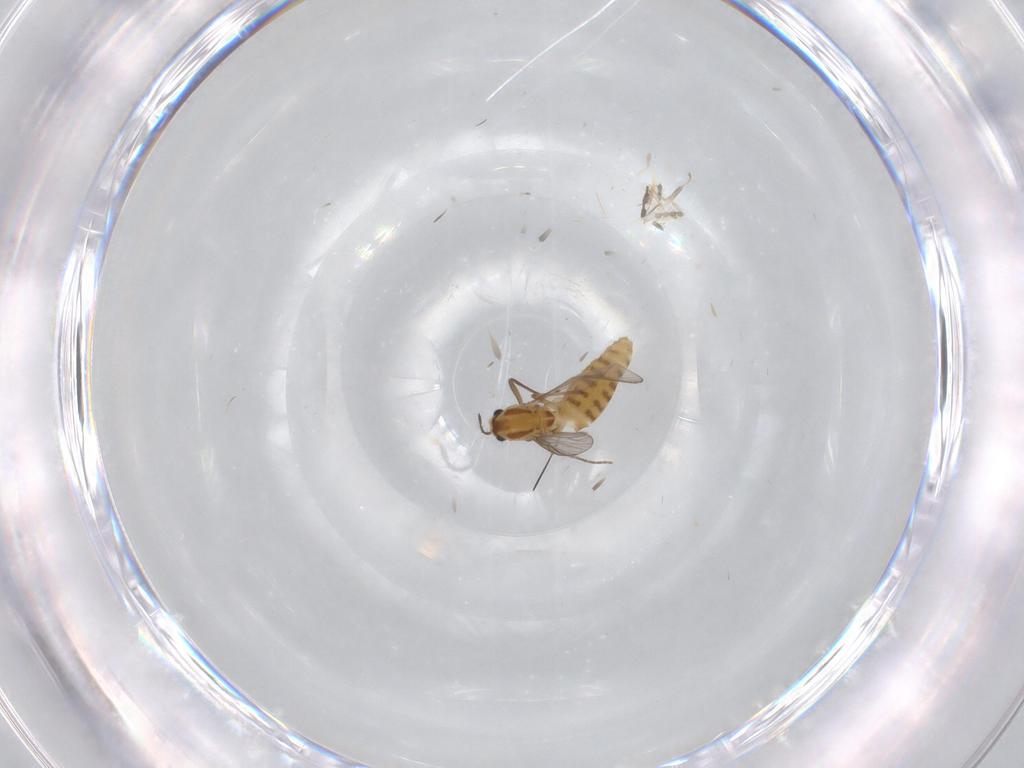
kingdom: Animalia
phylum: Arthropoda
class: Insecta
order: Diptera
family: Chironomidae
